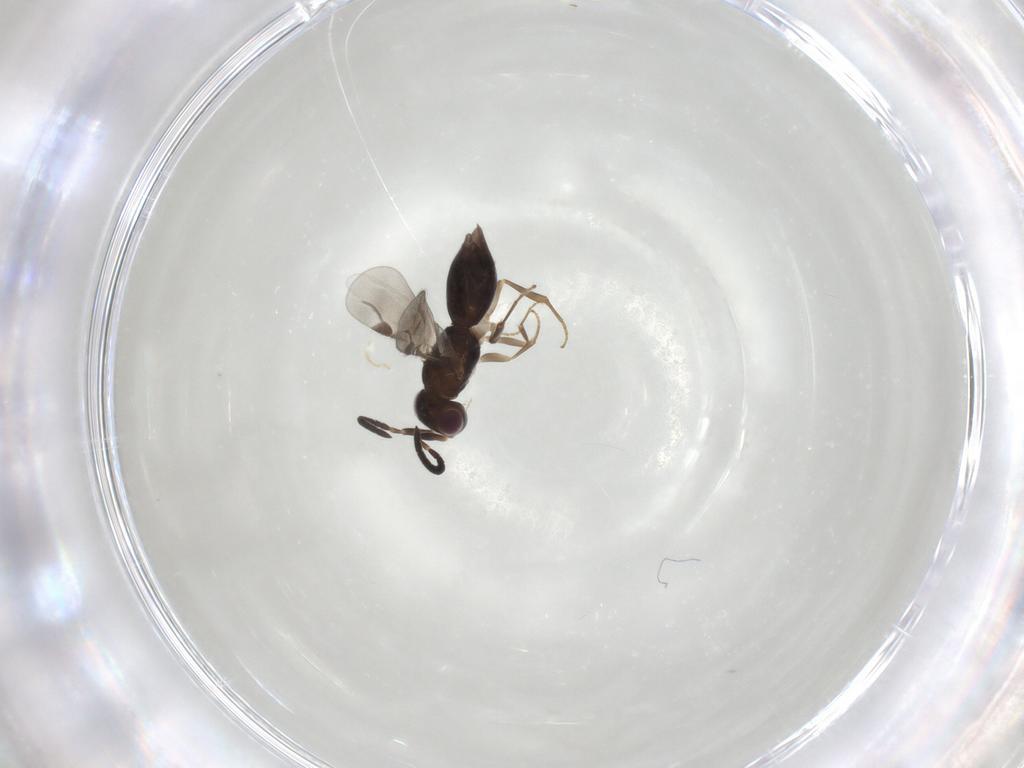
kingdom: Animalia
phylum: Arthropoda
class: Insecta
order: Hymenoptera
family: Megaspilidae
